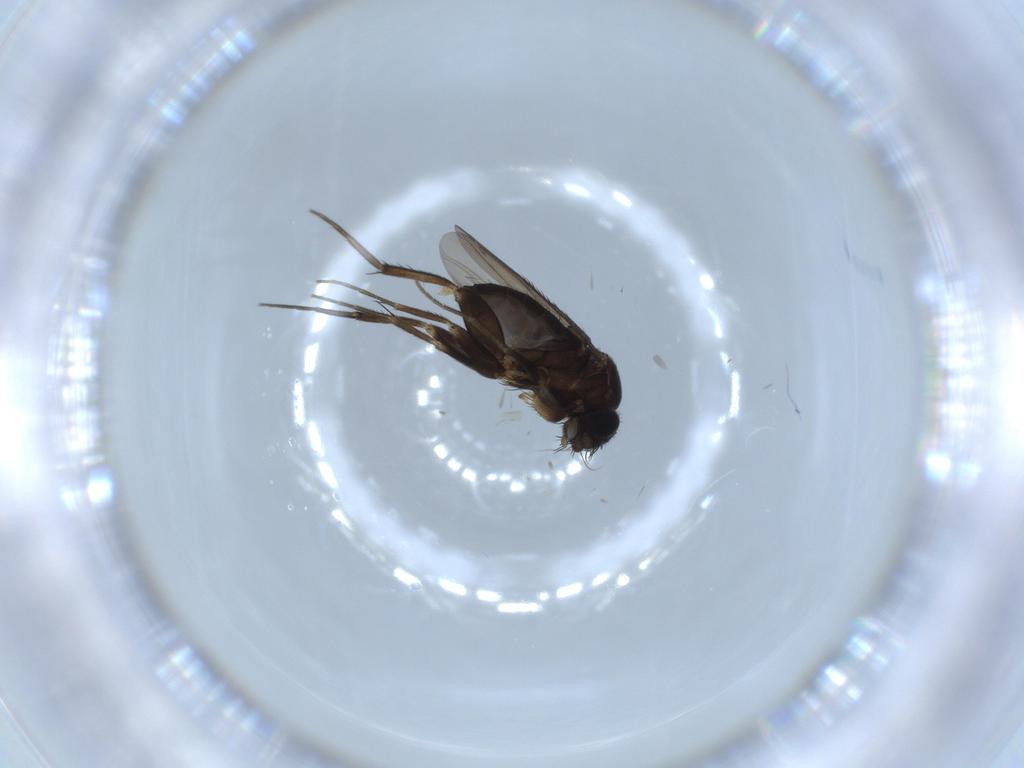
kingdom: Animalia
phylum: Arthropoda
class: Insecta
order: Diptera
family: Phoridae
